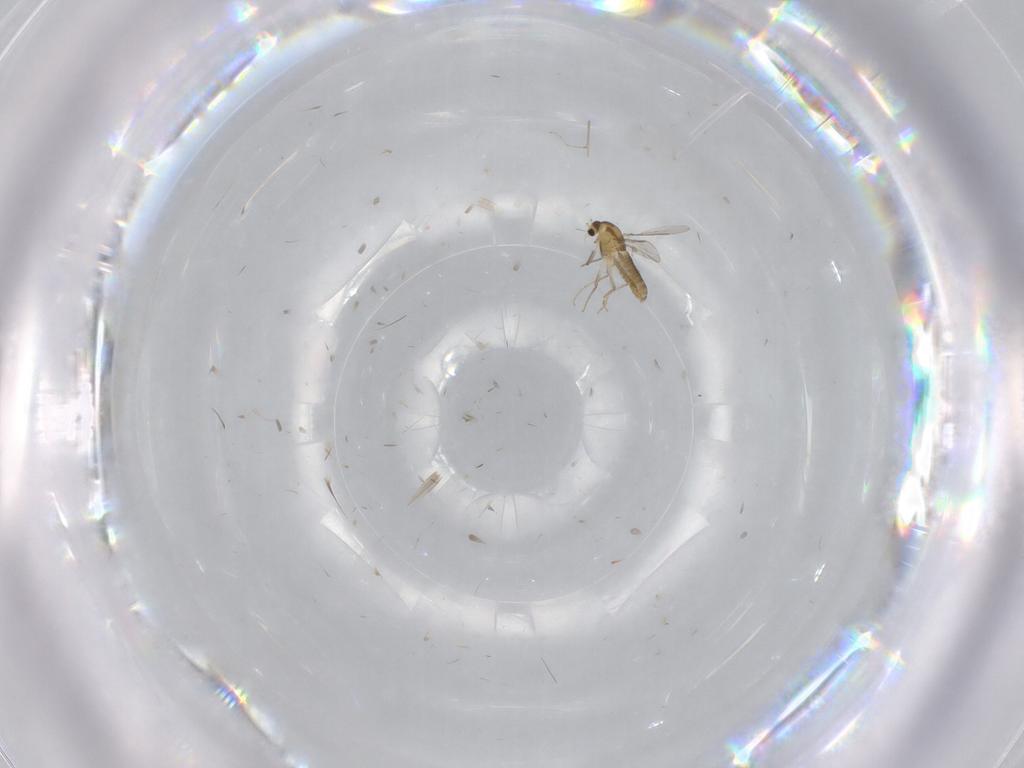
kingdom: Animalia
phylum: Arthropoda
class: Insecta
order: Diptera
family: Chironomidae
